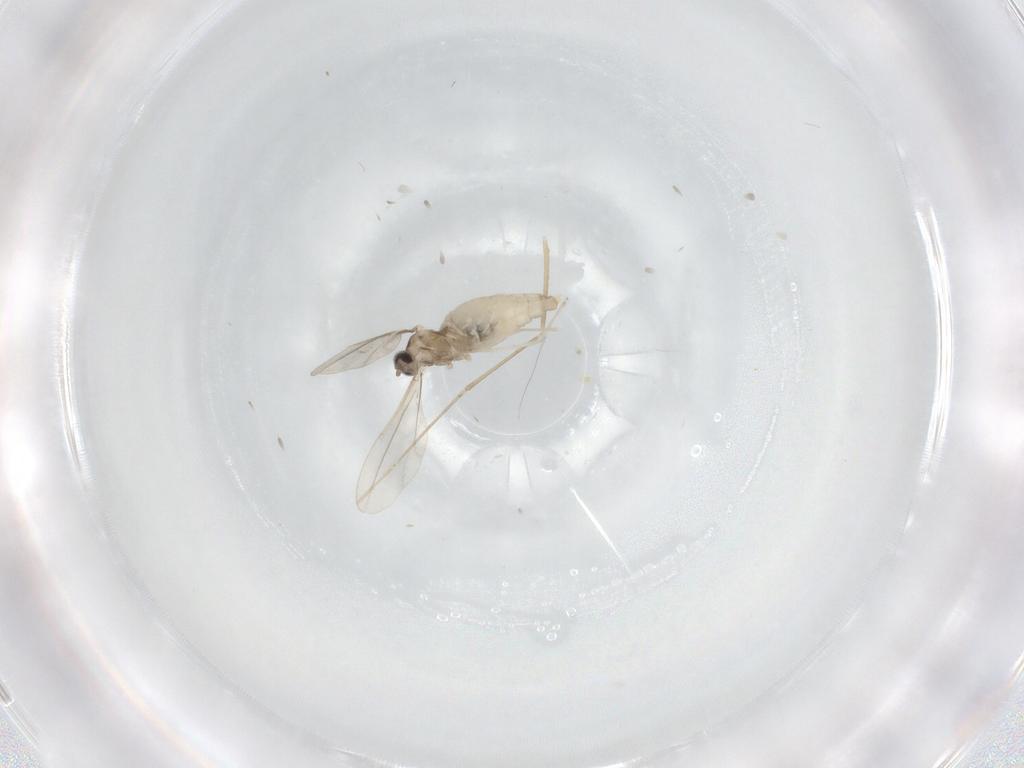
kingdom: Animalia
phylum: Arthropoda
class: Insecta
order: Diptera
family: Cecidomyiidae
